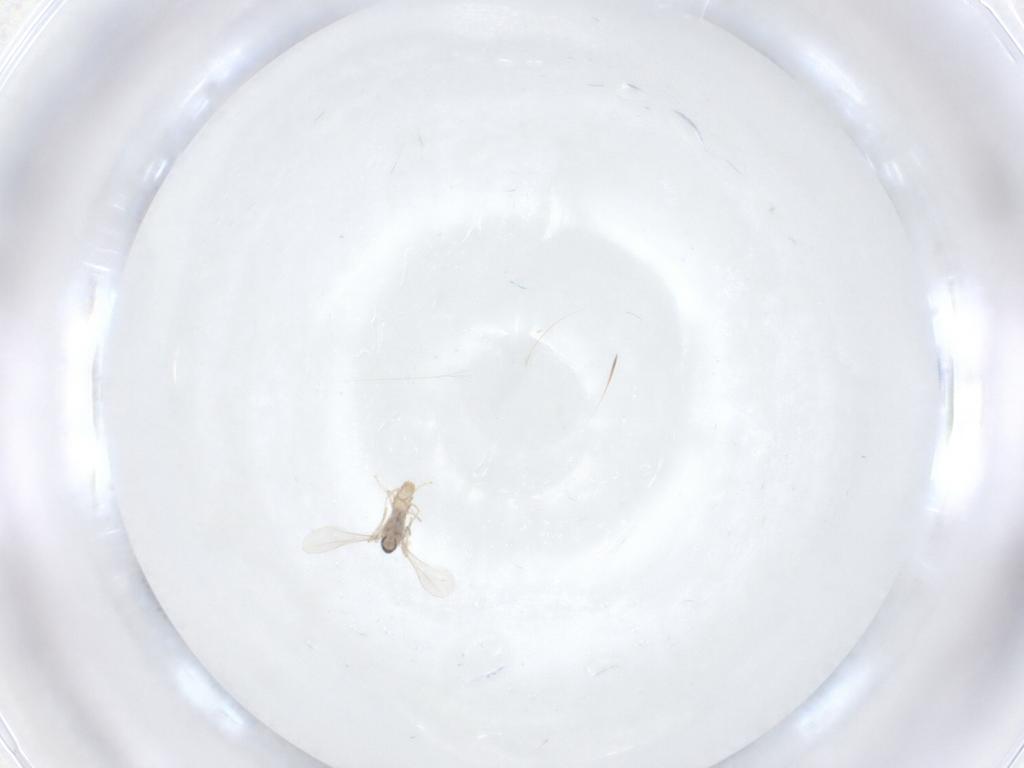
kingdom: Animalia
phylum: Arthropoda
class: Insecta
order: Diptera
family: Cecidomyiidae
